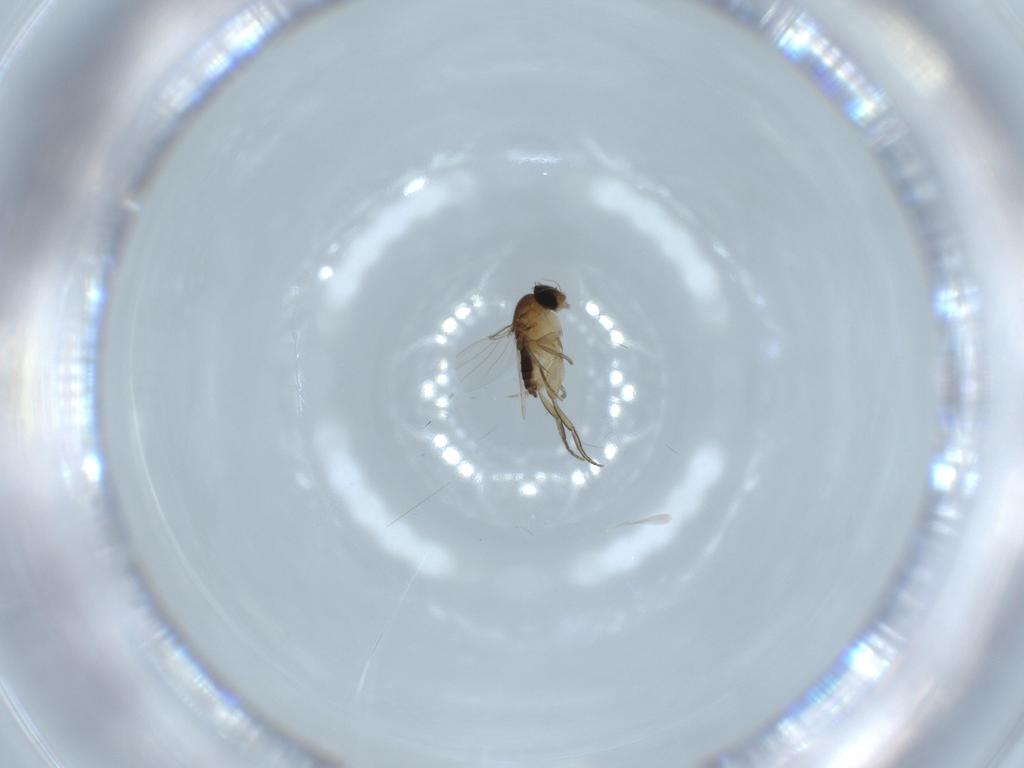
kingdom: Animalia
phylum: Arthropoda
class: Insecta
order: Diptera
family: Phoridae
